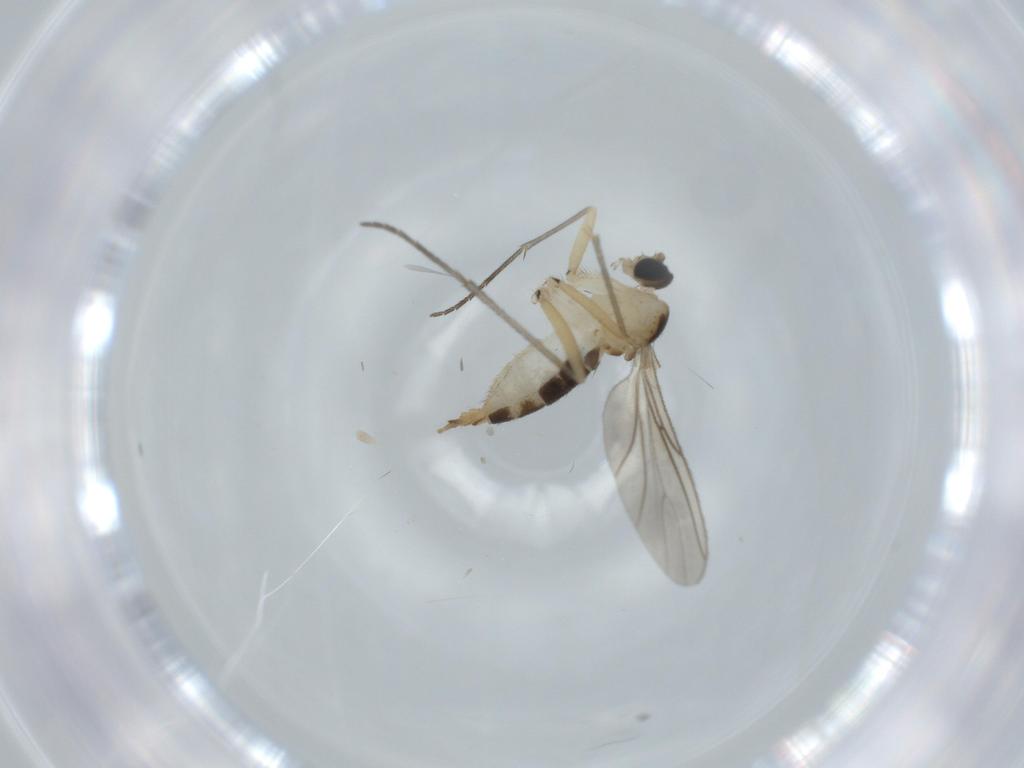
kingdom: Animalia
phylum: Arthropoda
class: Insecta
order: Diptera
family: Sciaridae
